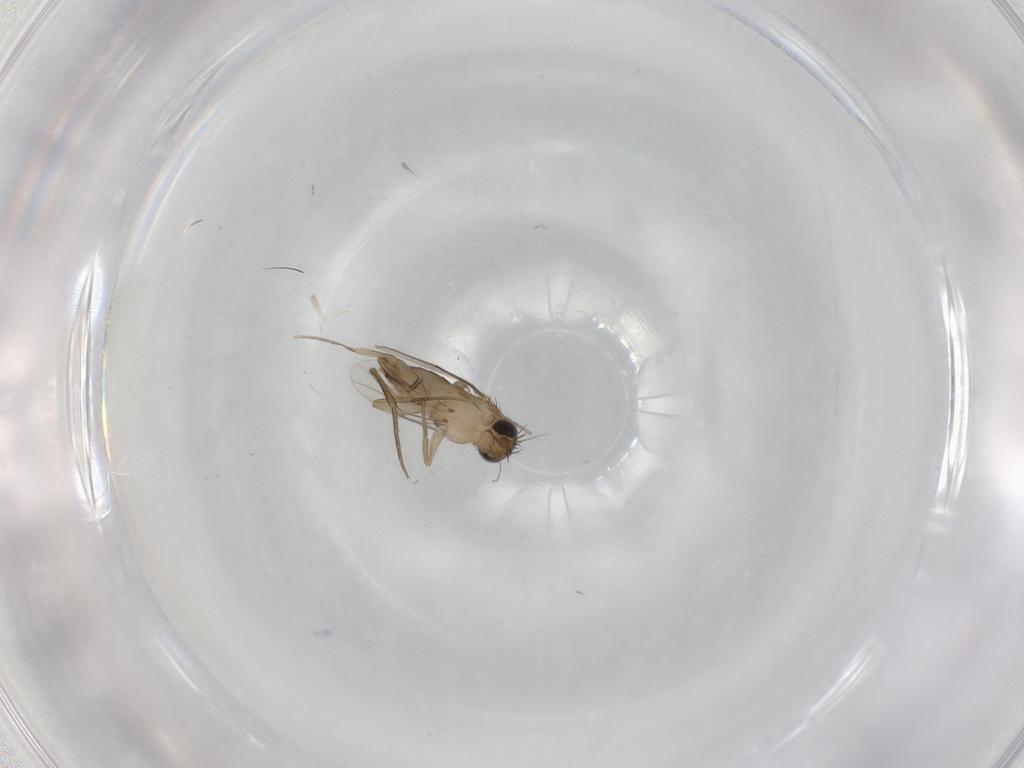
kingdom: Animalia
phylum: Arthropoda
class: Insecta
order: Diptera
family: Phoridae
